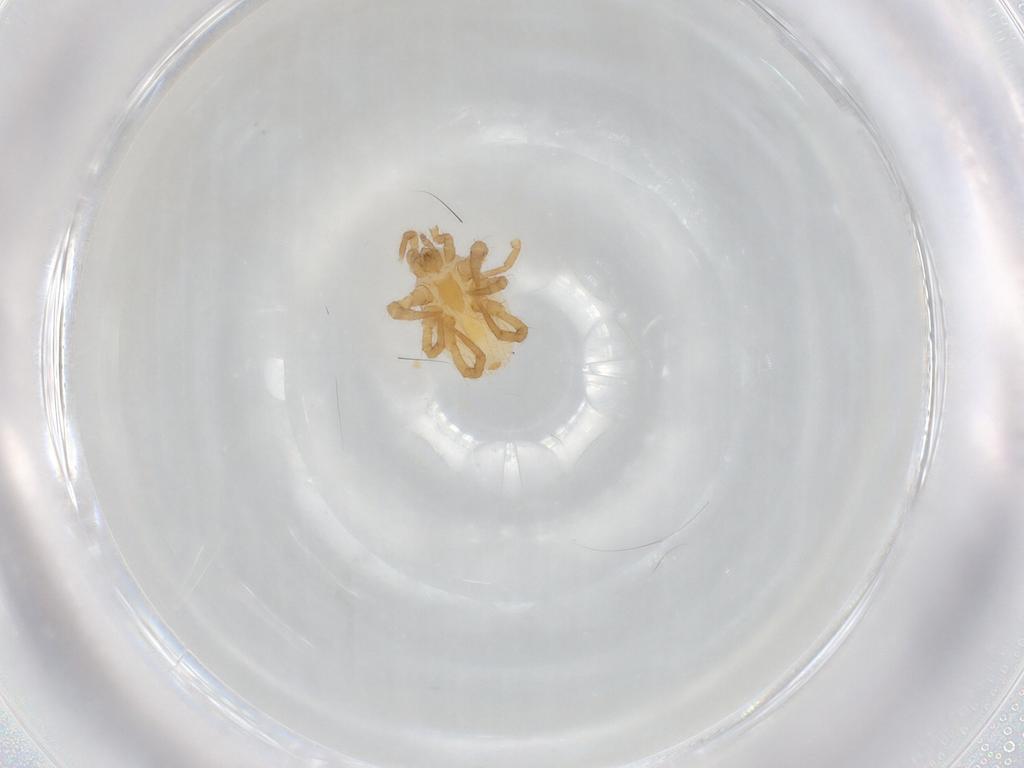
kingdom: Animalia
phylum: Arthropoda
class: Arachnida
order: Mesostigmata
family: Parasitidae
